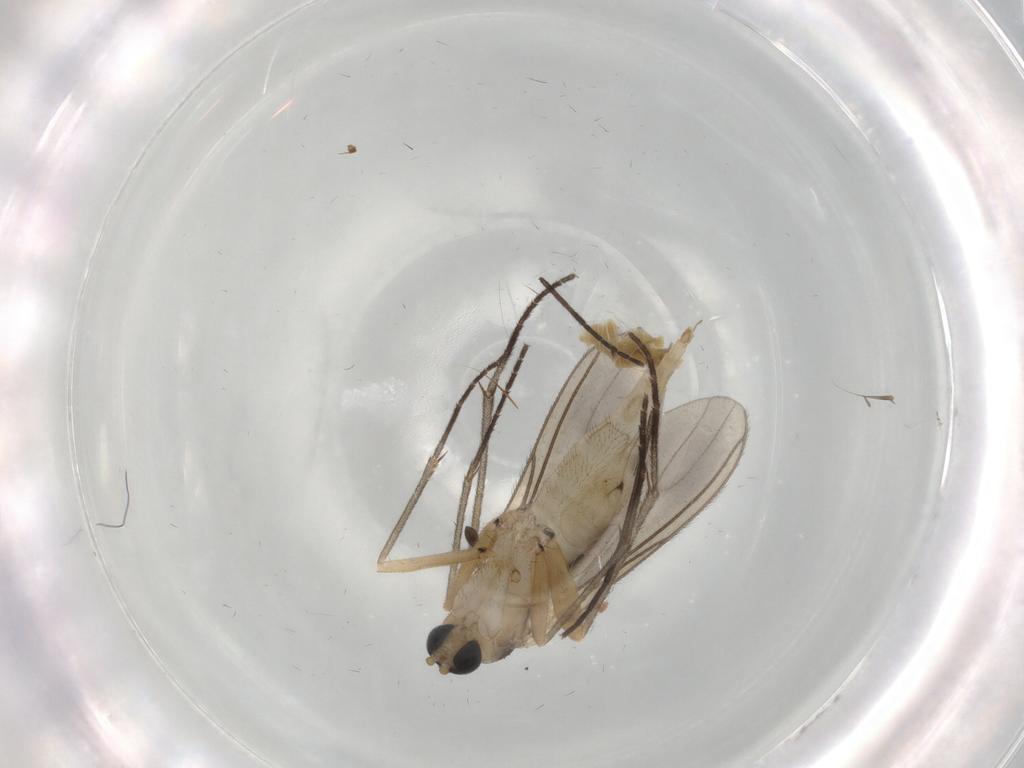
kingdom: Animalia
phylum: Arthropoda
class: Insecta
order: Diptera
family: Sciaridae
